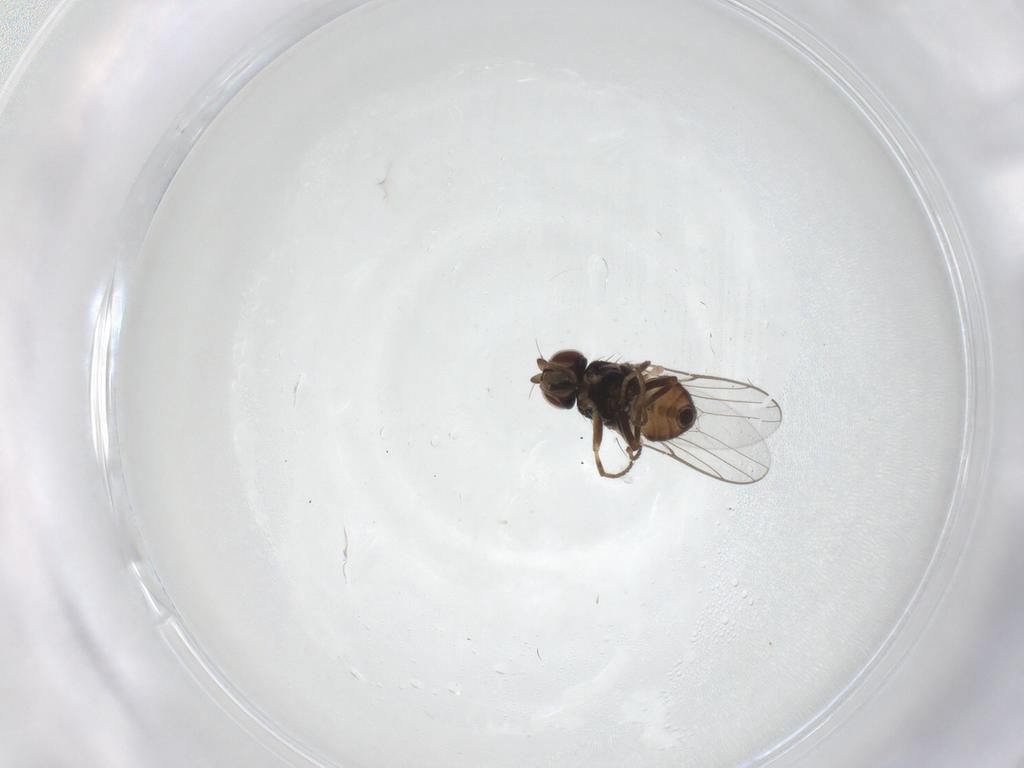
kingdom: Animalia
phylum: Arthropoda
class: Insecta
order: Diptera
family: Chloropidae
